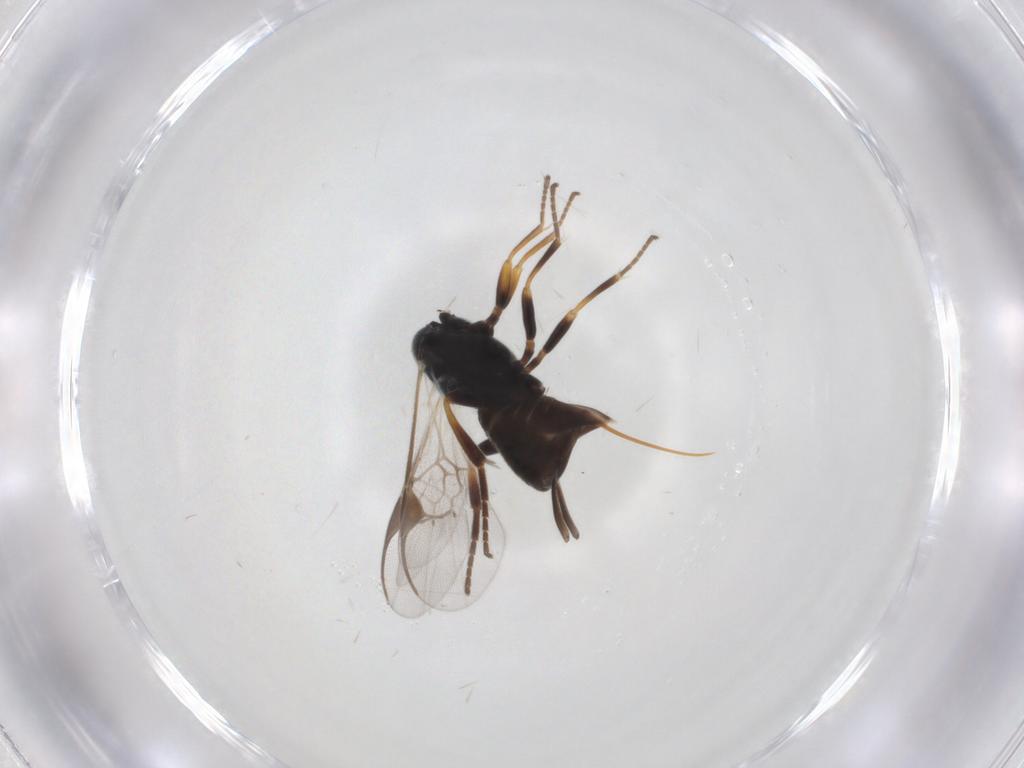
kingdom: Animalia
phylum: Arthropoda
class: Insecta
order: Hymenoptera
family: Braconidae
